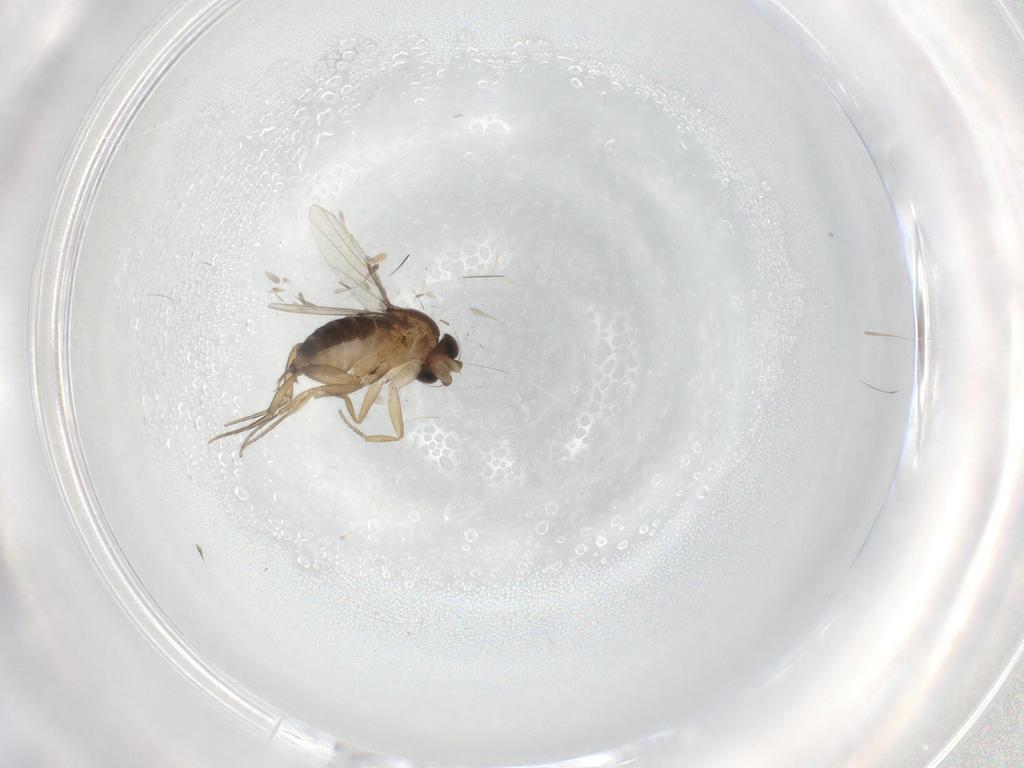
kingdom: Animalia
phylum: Arthropoda
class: Insecta
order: Diptera
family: Phoridae
